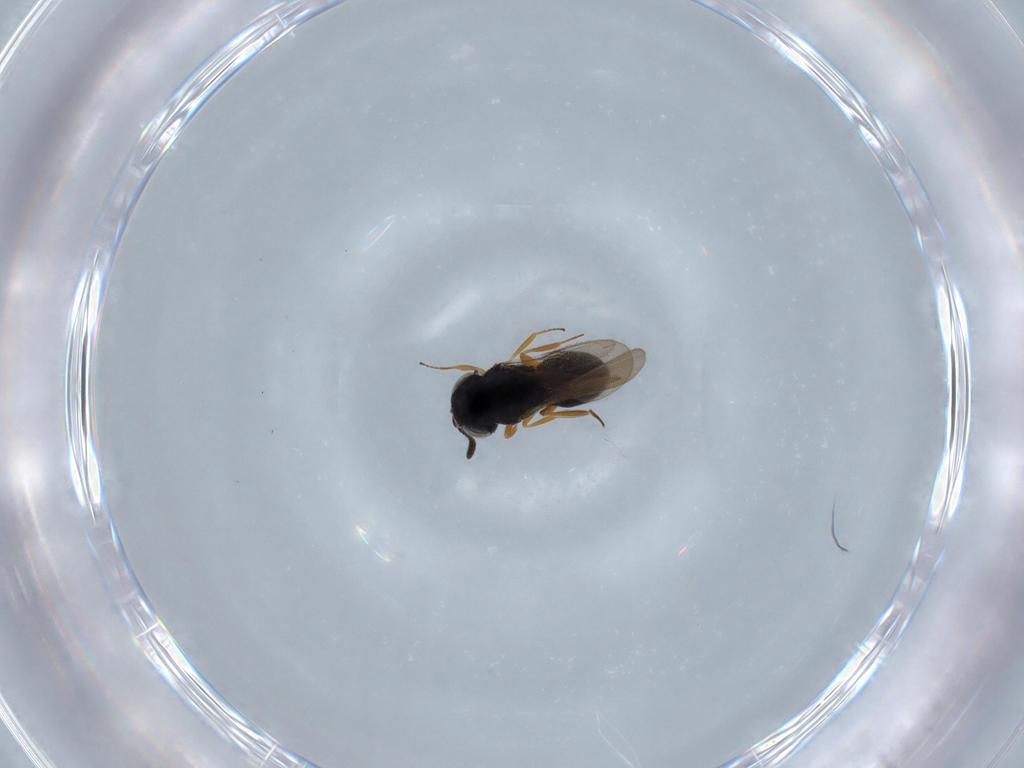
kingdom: Animalia
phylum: Arthropoda
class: Insecta
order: Hymenoptera
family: Scelionidae
